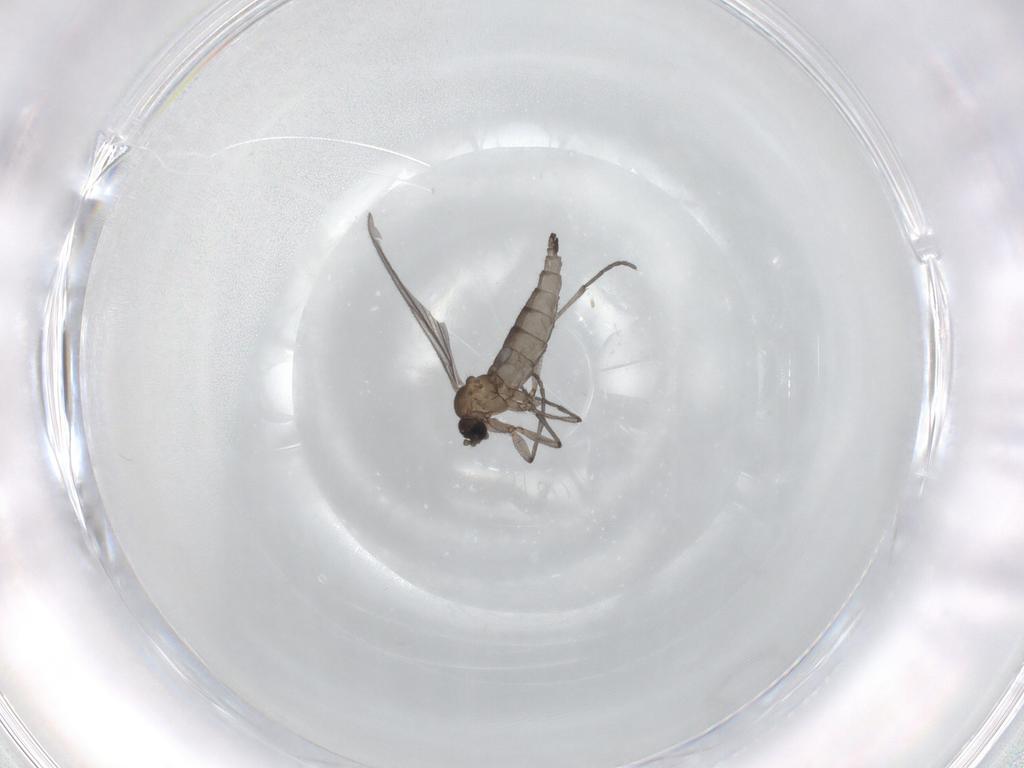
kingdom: Animalia
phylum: Arthropoda
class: Insecta
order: Diptera
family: Sciaridae
